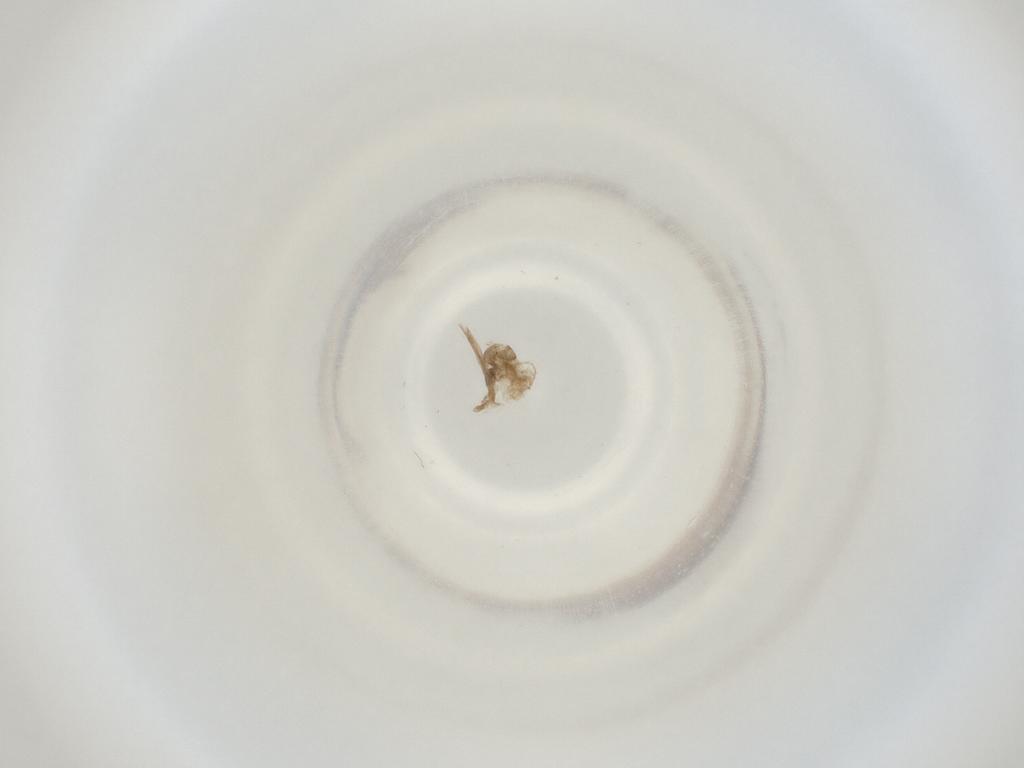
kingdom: Animalia
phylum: Arthropoda
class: Insecta
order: Diptera
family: Cecidomyiidae
